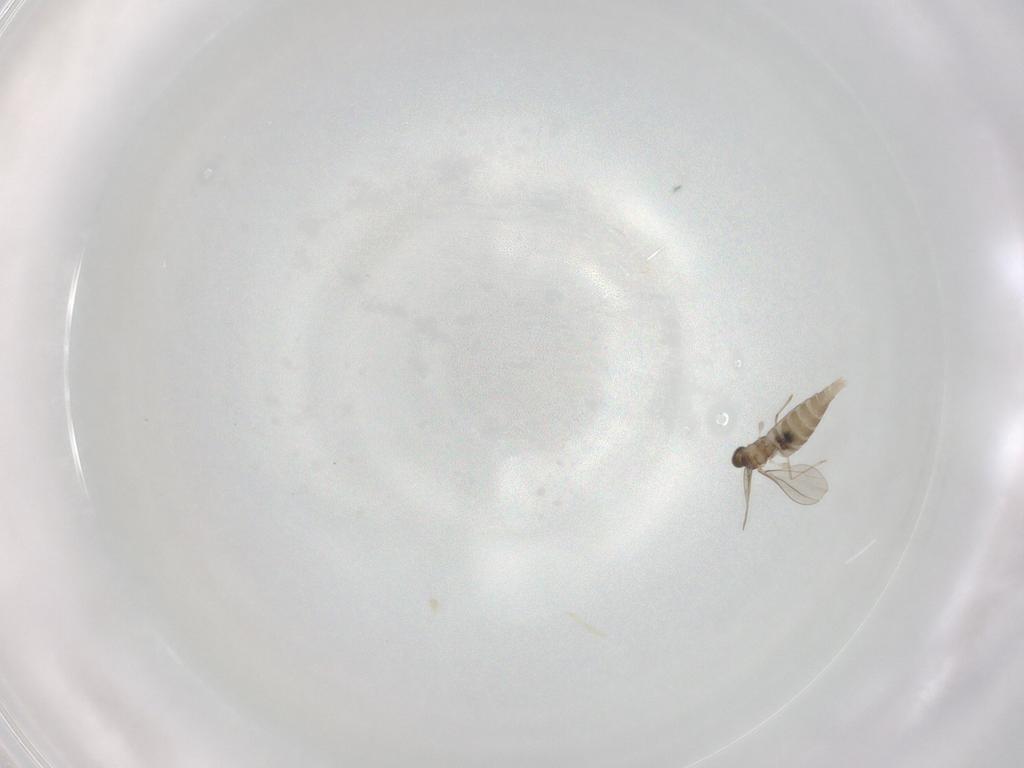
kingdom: Animalia
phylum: Arthropoda
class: Insecta
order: Diptera
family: Dolichopodidae
